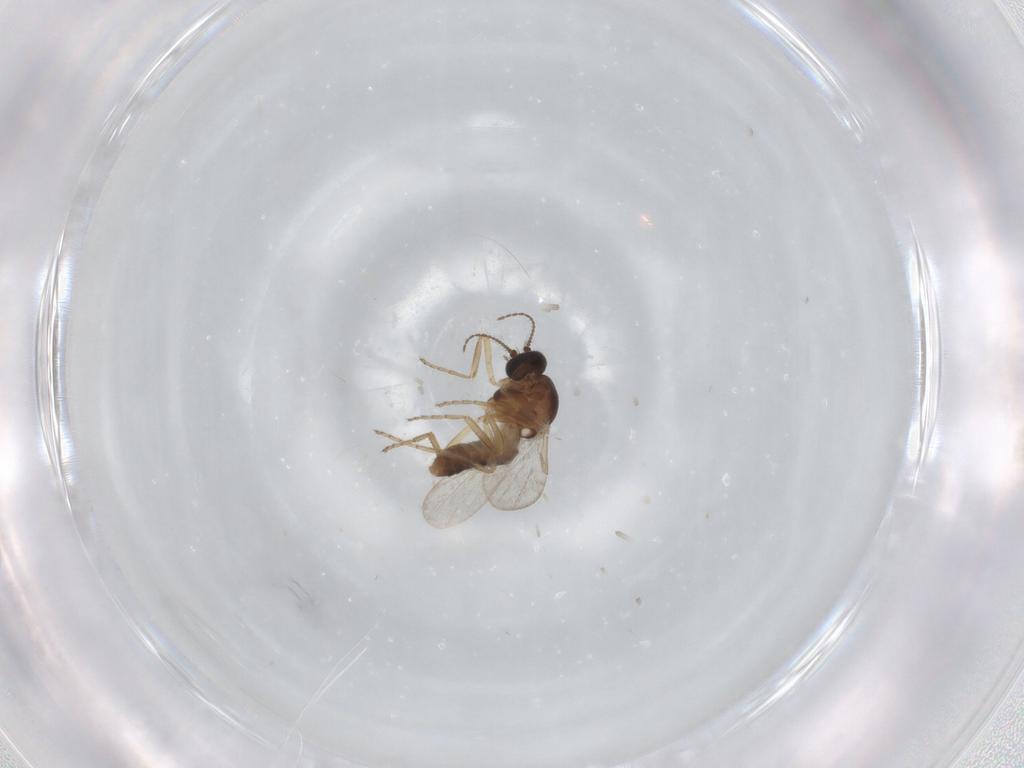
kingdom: Animalia
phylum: Arthropoda
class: Insecta
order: Diptera
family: Ceratopogonidae
